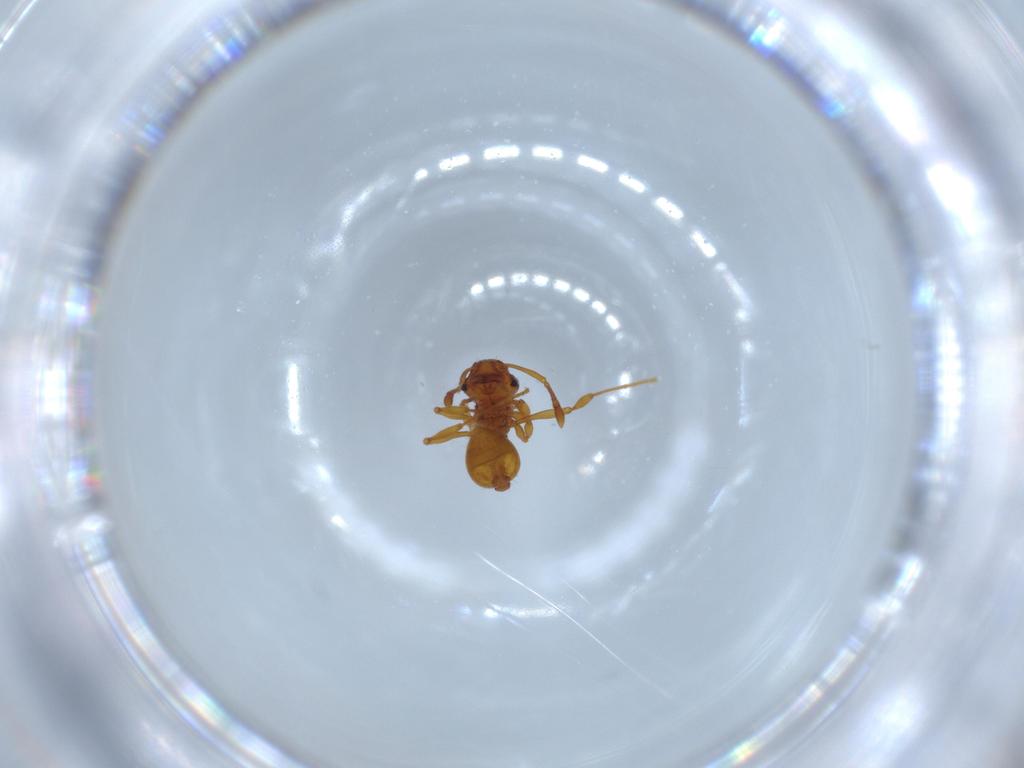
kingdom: Animalia
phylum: Arthropoda
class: Insecta
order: Hymenoptera
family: Formicidae
